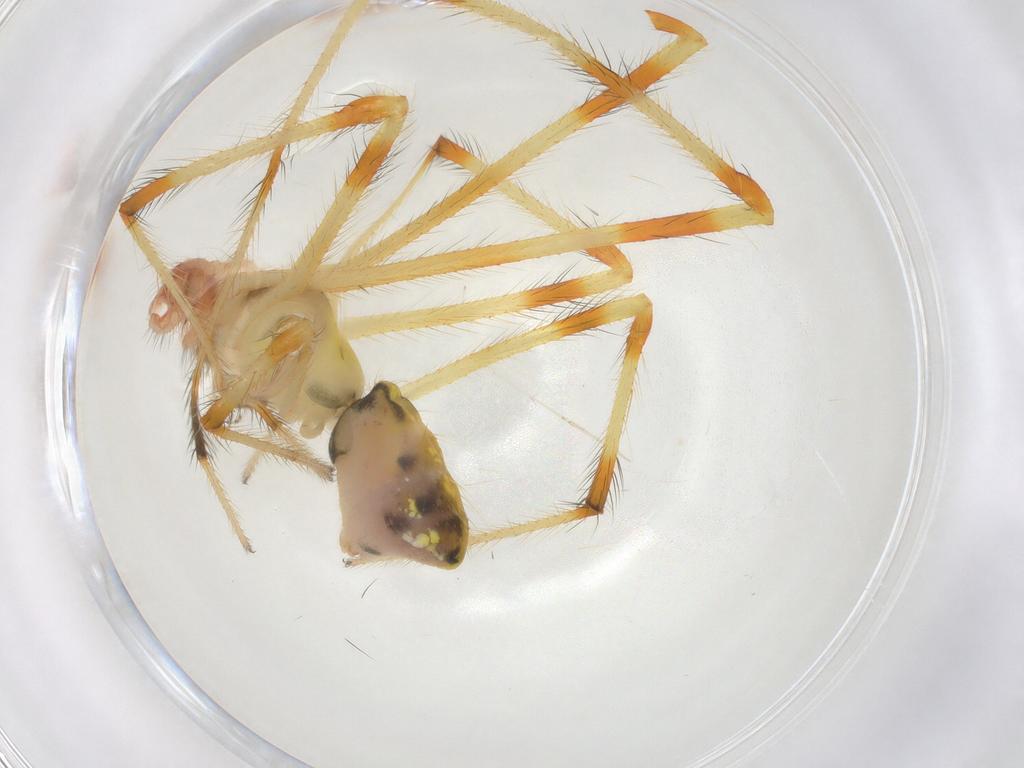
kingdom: Animalia
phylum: Arthropoda
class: Arachnida
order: Araneae
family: Theridiidae
